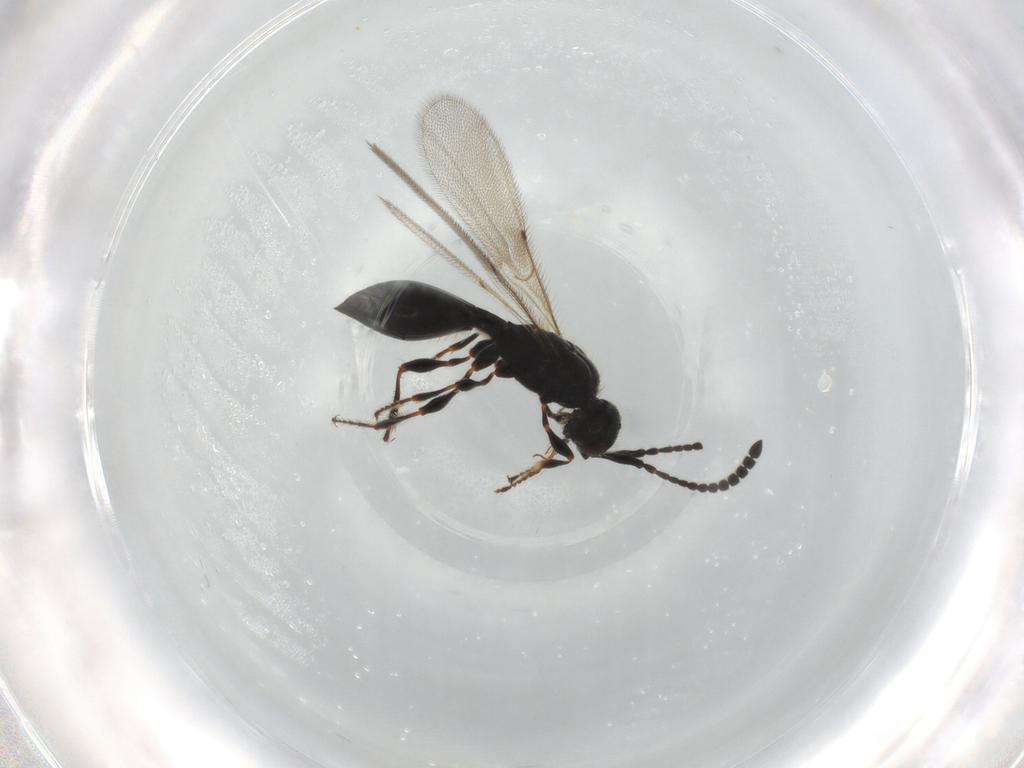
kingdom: Animalia
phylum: Arthropoda
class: Insecta
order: Hymenoptera
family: Diapriidae
